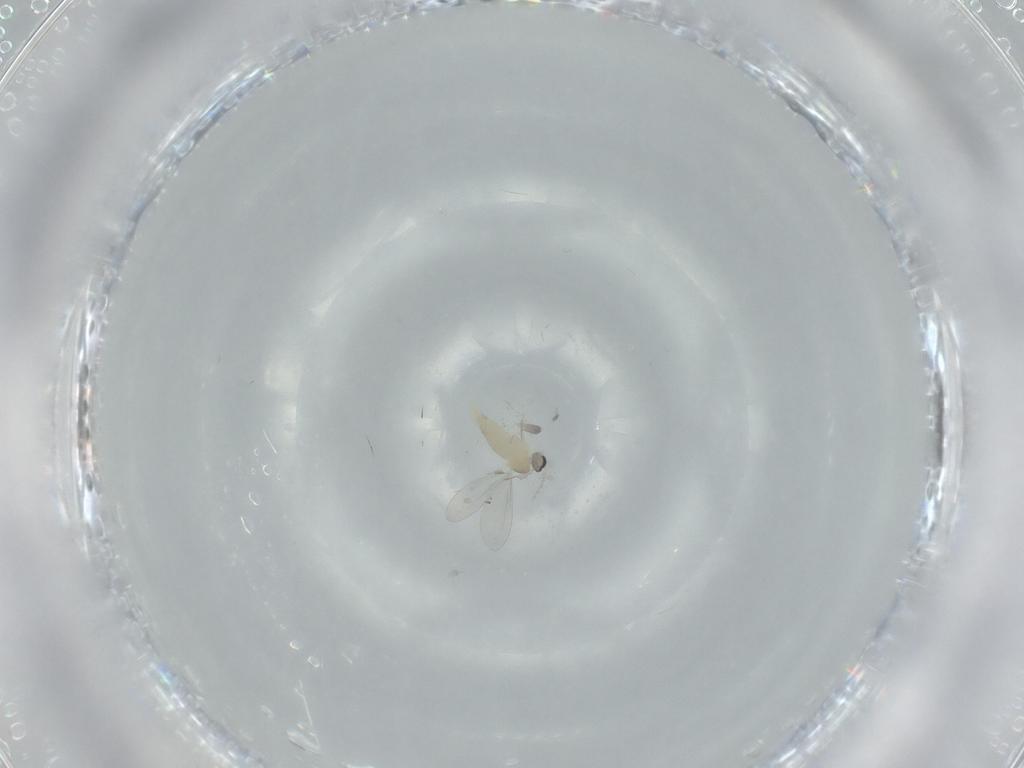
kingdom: Animalia
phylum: Arthropoda
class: Insecta
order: Diptera
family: Cecidomyiidae
